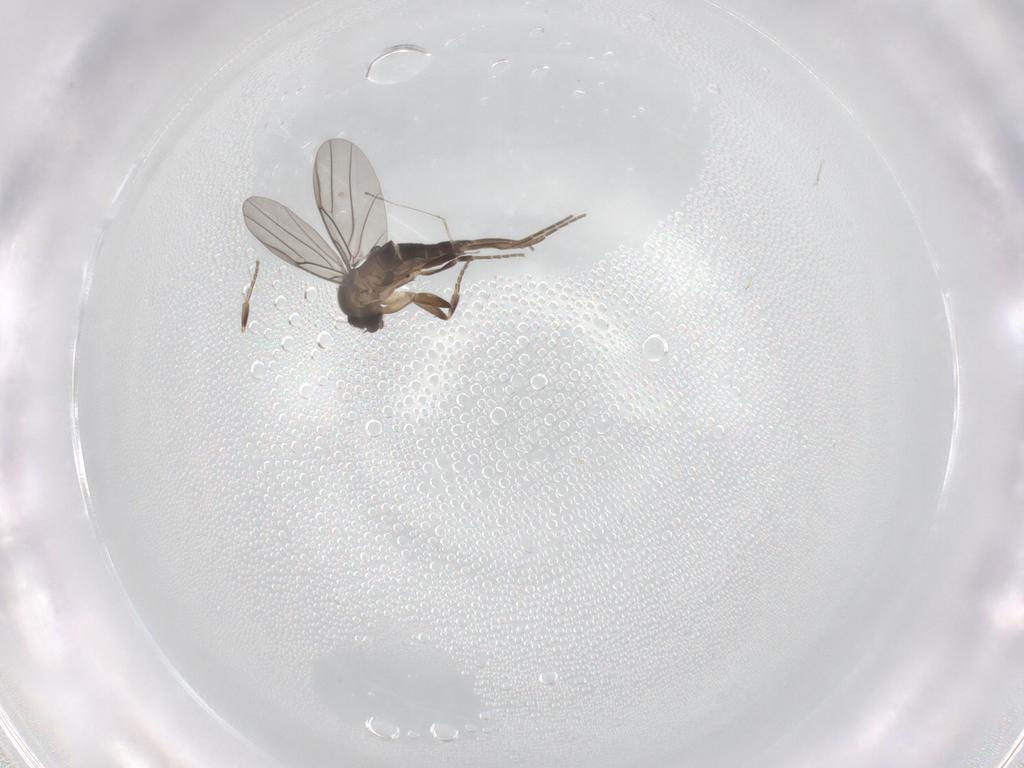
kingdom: Animalia
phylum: Arthropoda
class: Insecta
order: Diptera
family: Cecidomyiidae
